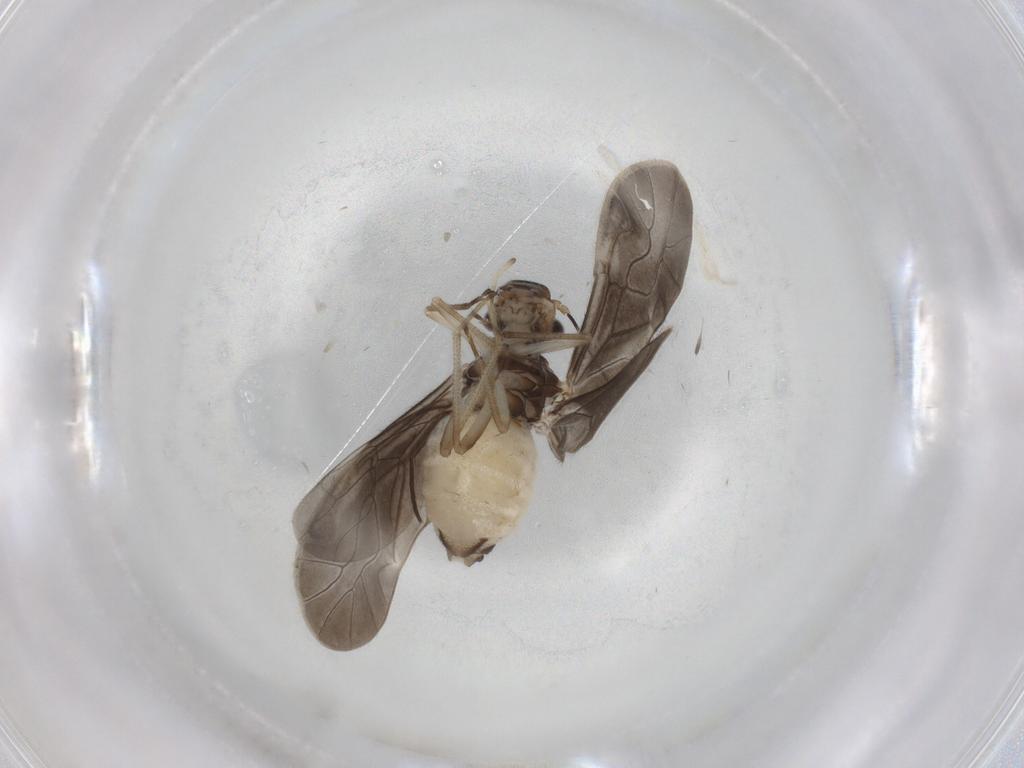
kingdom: Animalia
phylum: Arthropoda
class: Insecta
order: Psocodea
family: Caeciliusidae
